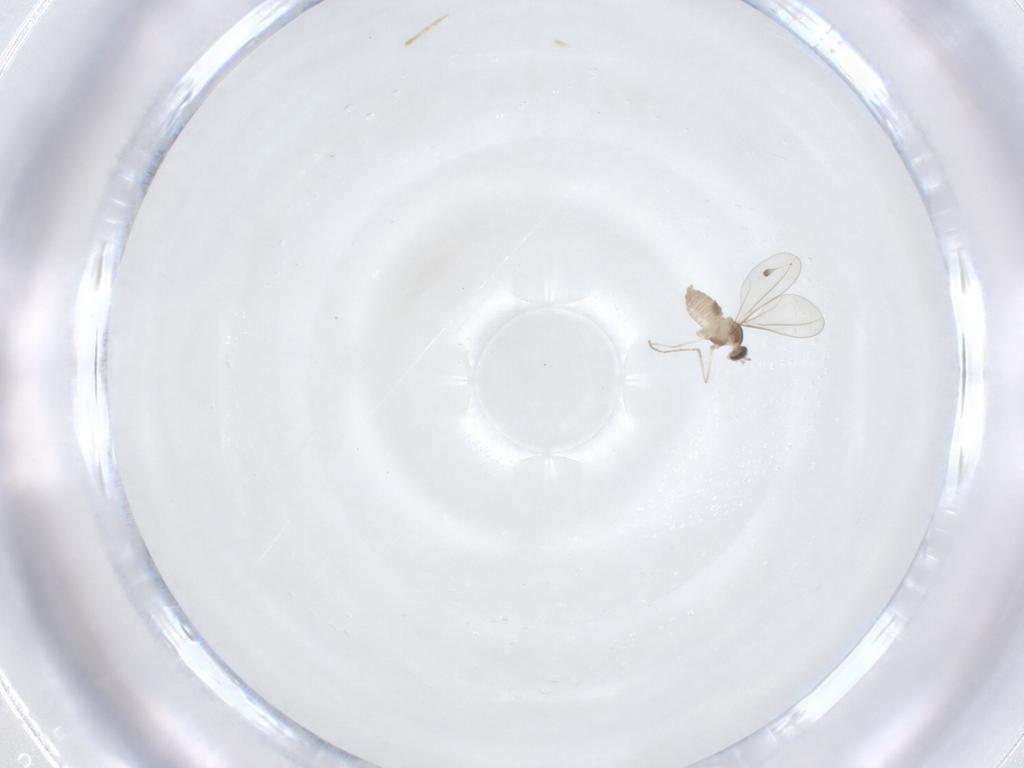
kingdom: Animalia
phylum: Arthropoda
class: Insecta
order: Diptera
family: Cecidomyiidae
